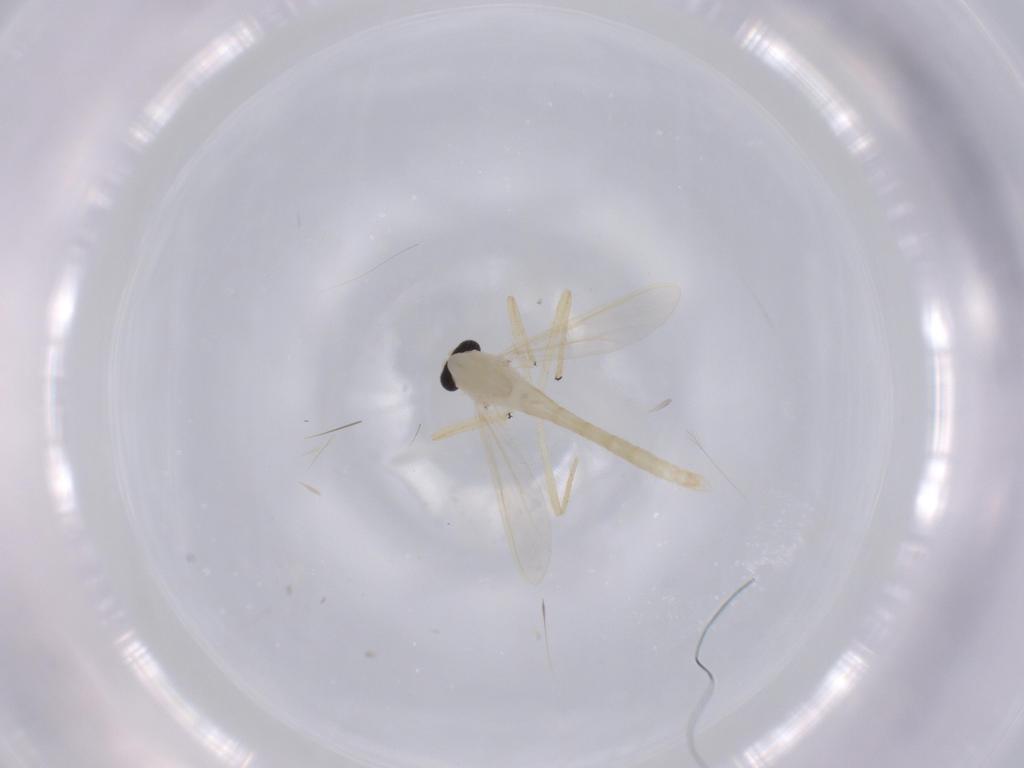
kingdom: Animalia
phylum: Arthropoda
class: Insecta
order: Diptera
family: Chironomidae
